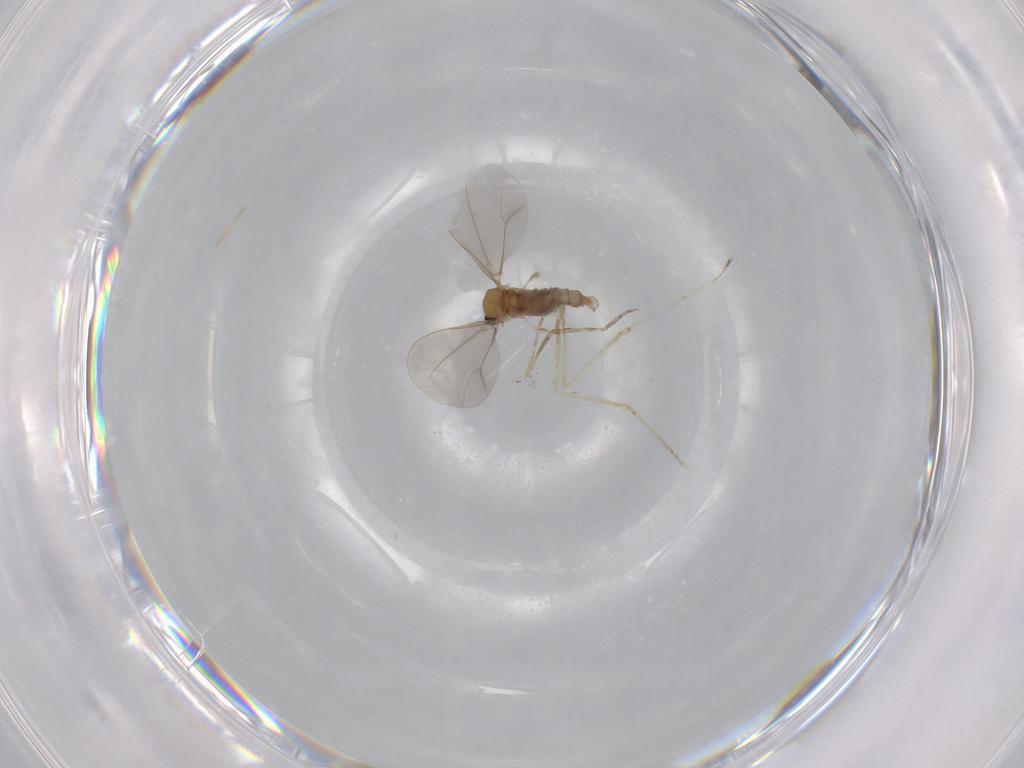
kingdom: Animalia
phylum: Arthropoda
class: Insecta
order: Diptera
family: Cecidomyiidae
